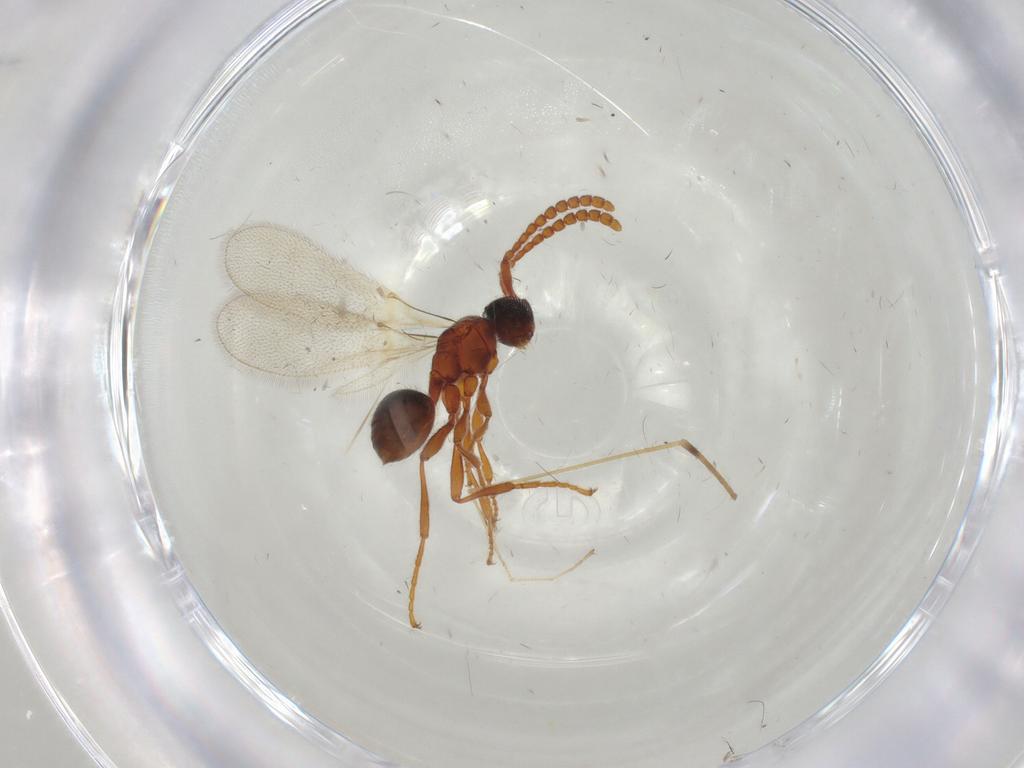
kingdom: Animalia
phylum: Arthropoda
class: Insecta
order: Hymenoptera
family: Diapriidae
